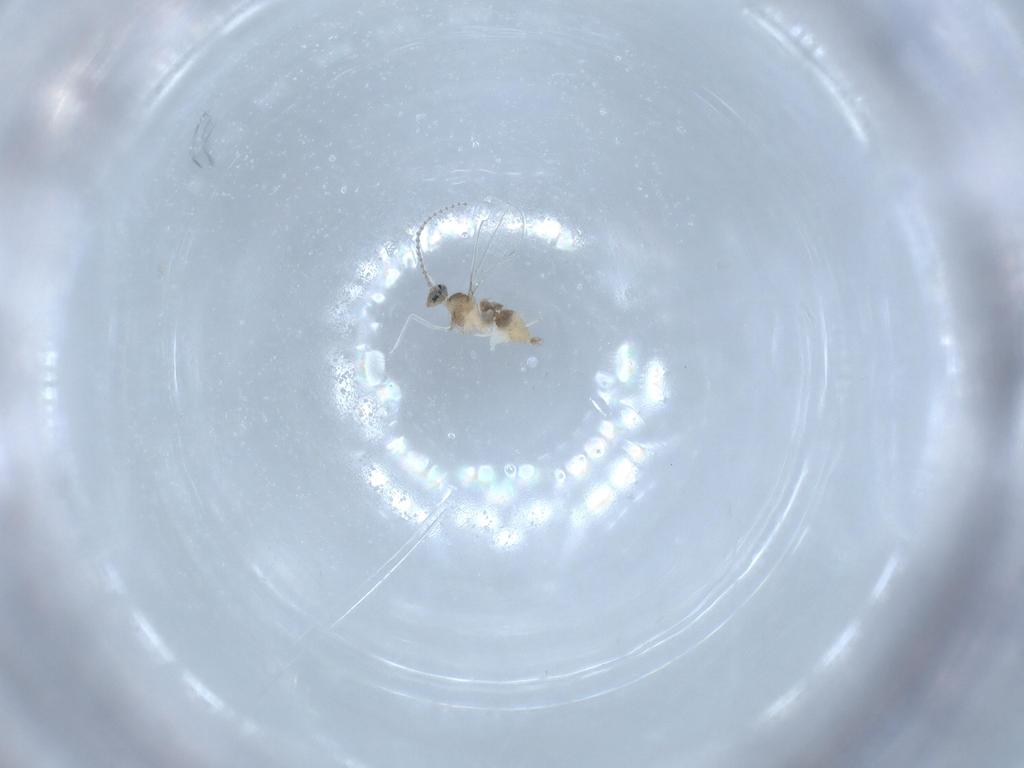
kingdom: Animalia
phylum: Arthropoda
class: Insecta
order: Diptera
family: Cecidomyiidae
